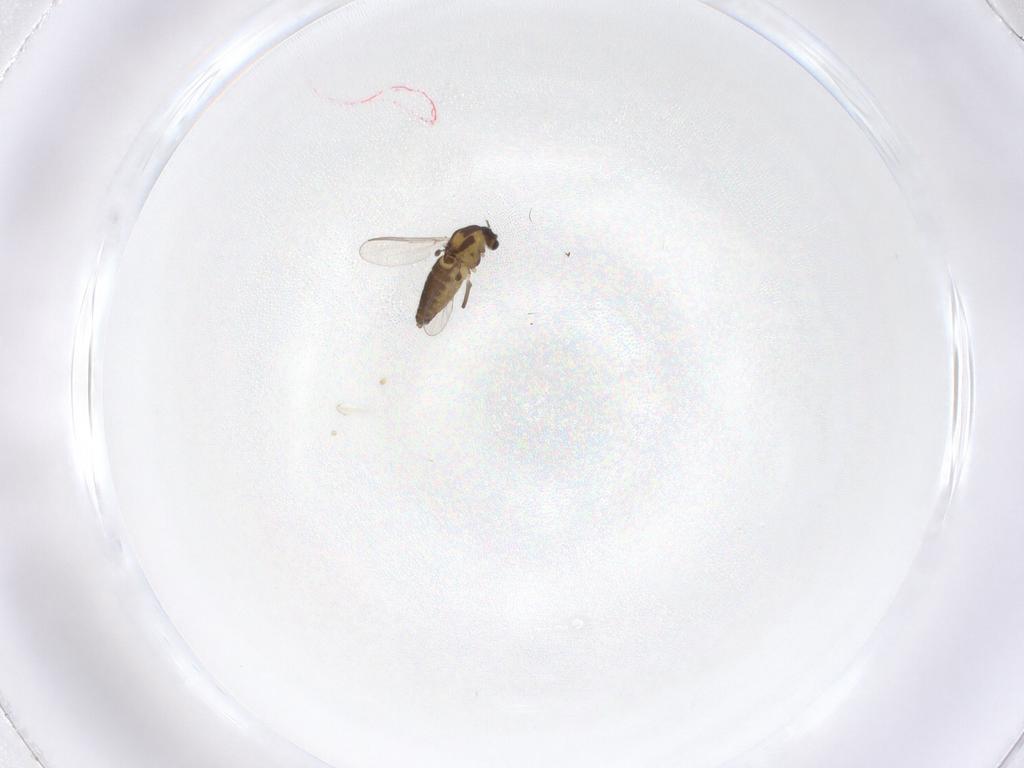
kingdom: Animalia
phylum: Arthropoda
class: Insecta
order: Diptera
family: Chironomidae
